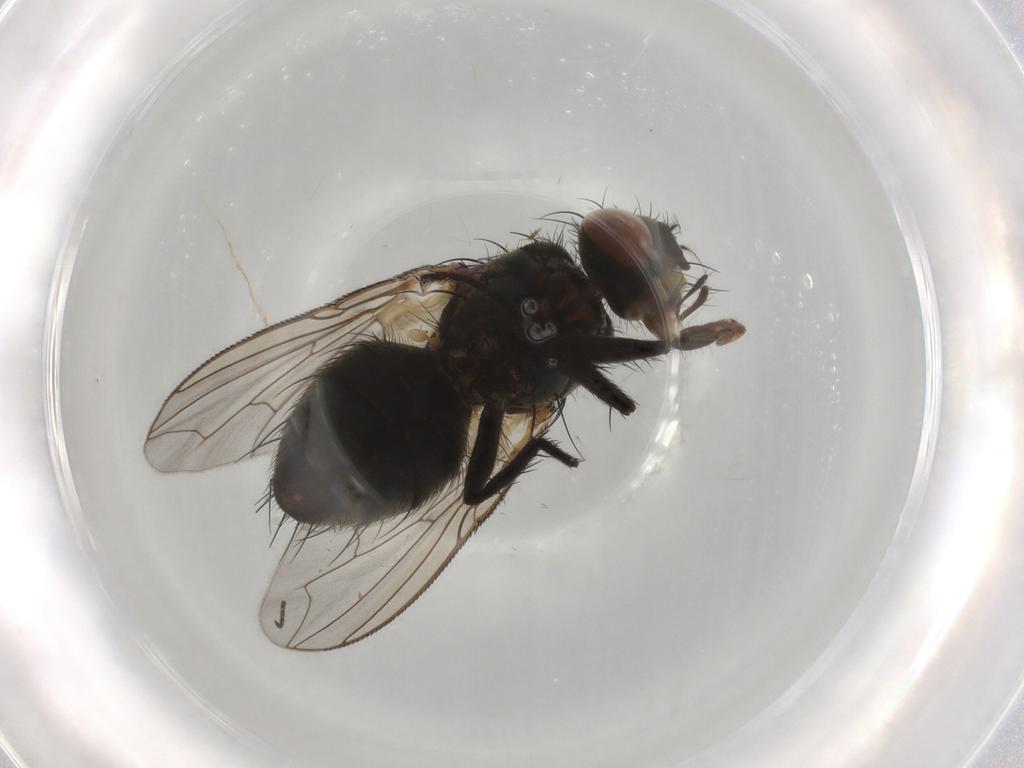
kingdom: Animalia
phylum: Arthropoda
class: Insecta
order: Diptera
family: Sarcophagidae
